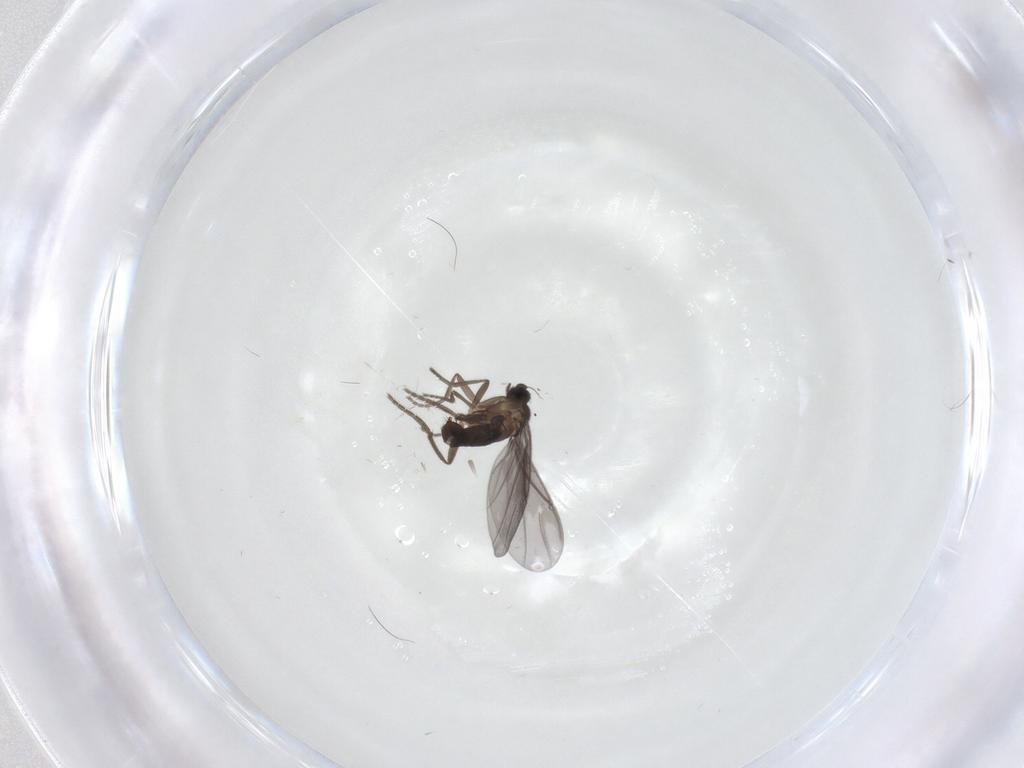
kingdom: Animalia
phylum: Arthropoda
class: Insecta
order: Diptera
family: Phoridae
